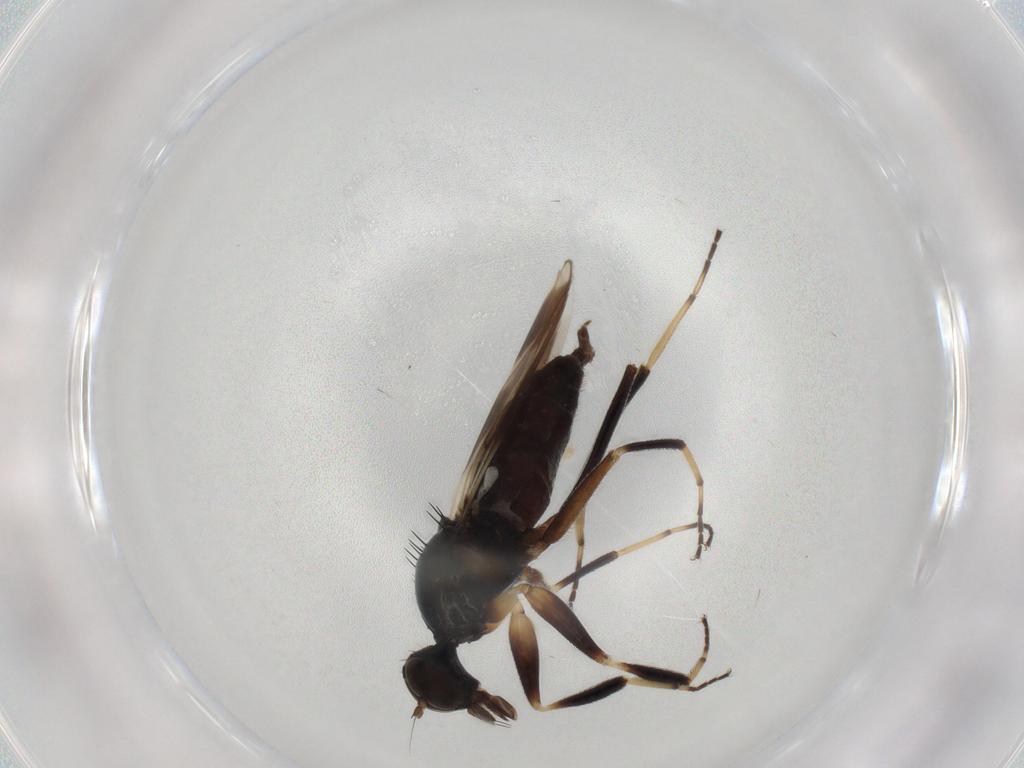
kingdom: Animalia
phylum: Arthropoda
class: Insecta
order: Diptera
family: Hybotidae
